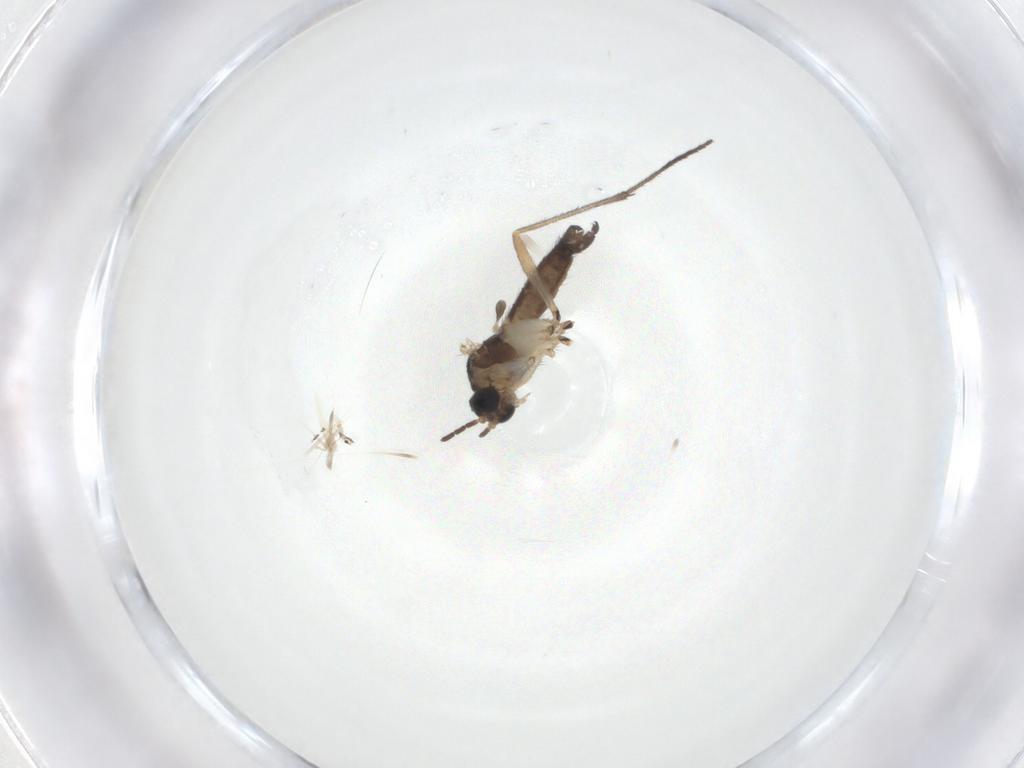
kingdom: Animalia
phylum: Arthropoda
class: Insecta
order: Diptera
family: Sciaridae
